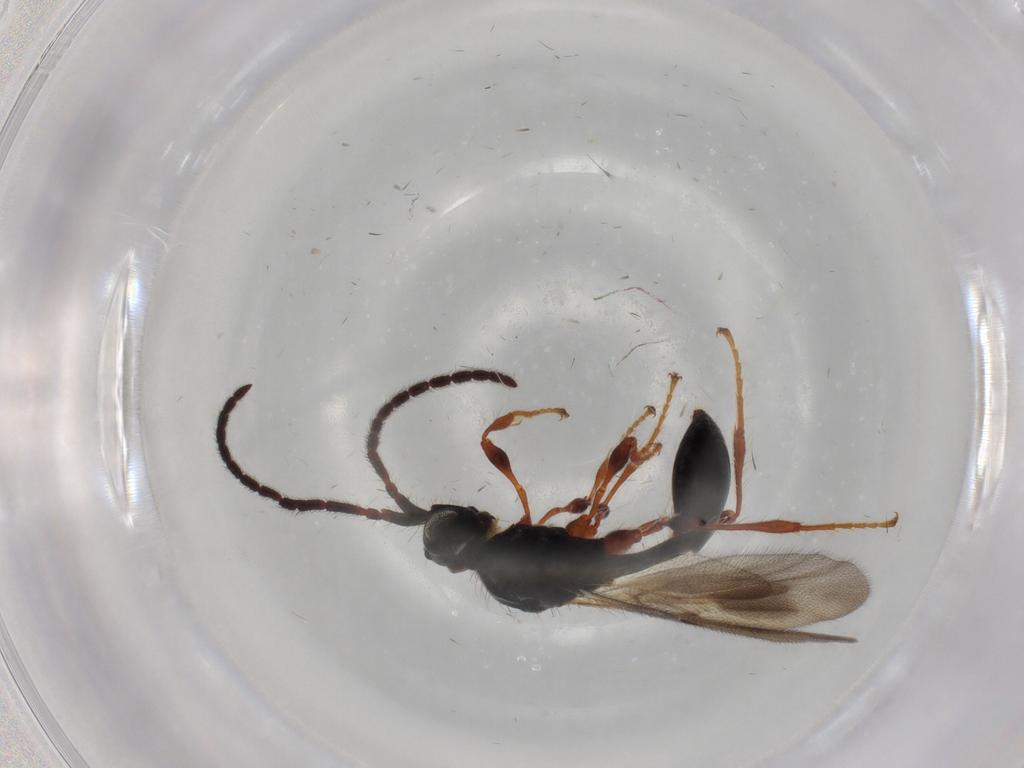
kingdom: Animalia
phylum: Arthropoda
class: Insecta
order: Hymenoptera
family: Diapriidae
